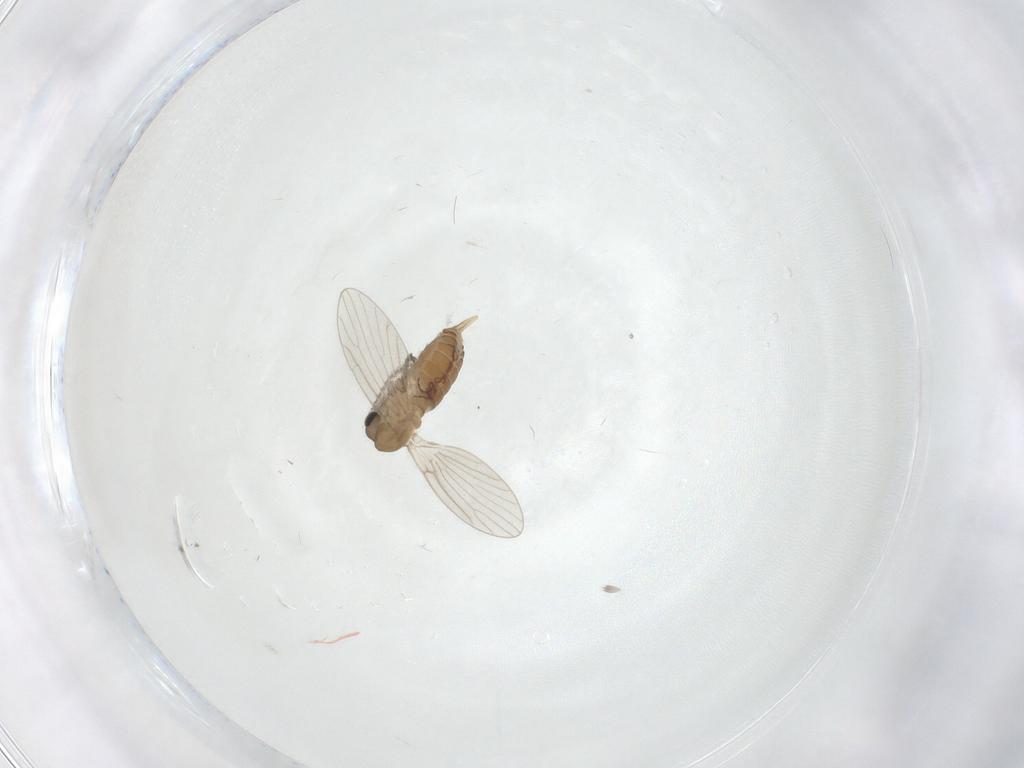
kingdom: Animalia
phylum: Arthropoda
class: Insecta
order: Diptera
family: Psychodidae
